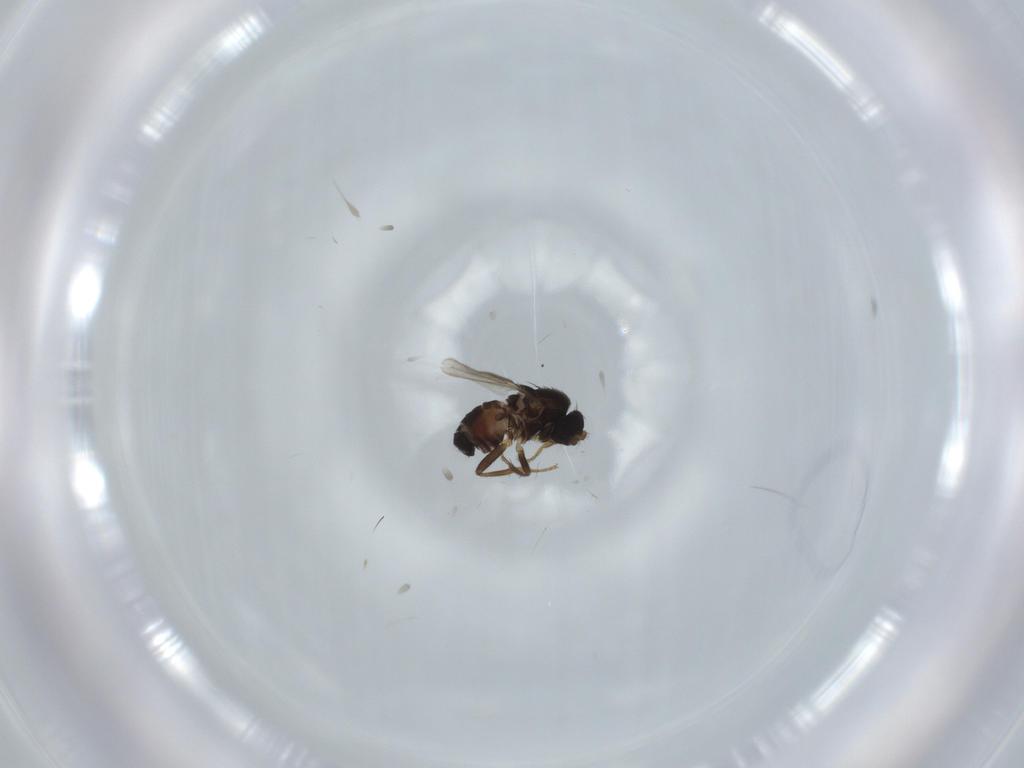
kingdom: Animalia
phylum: Arthropoda
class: Insecta
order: Diptera
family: Sphaeroceridae
